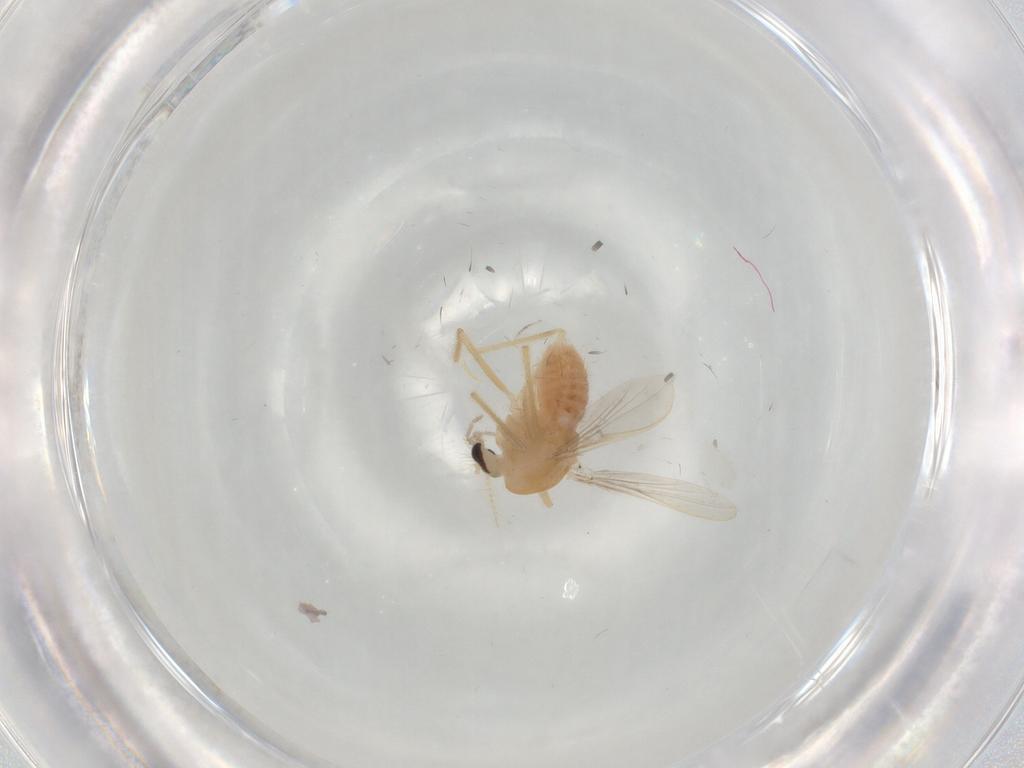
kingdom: Animalia
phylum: Arthropoda
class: Insecta
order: Diptera
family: Chironomidae
